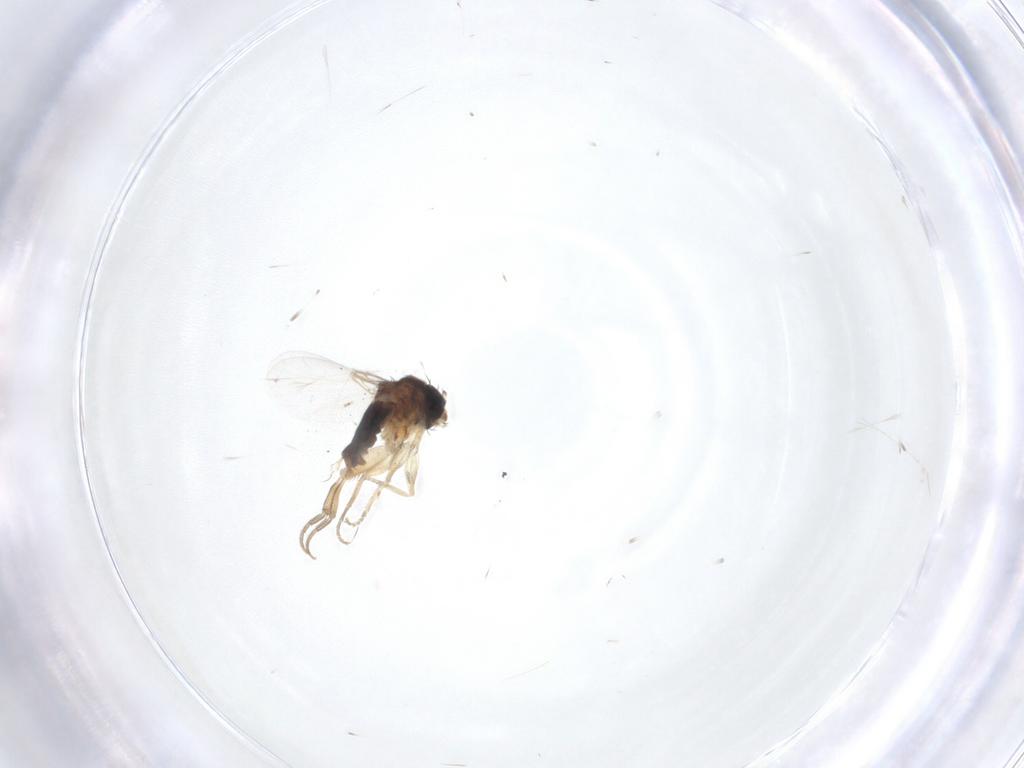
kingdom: Animalia
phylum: Arthropoda
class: Insecta
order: Diptera
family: Phoridae
